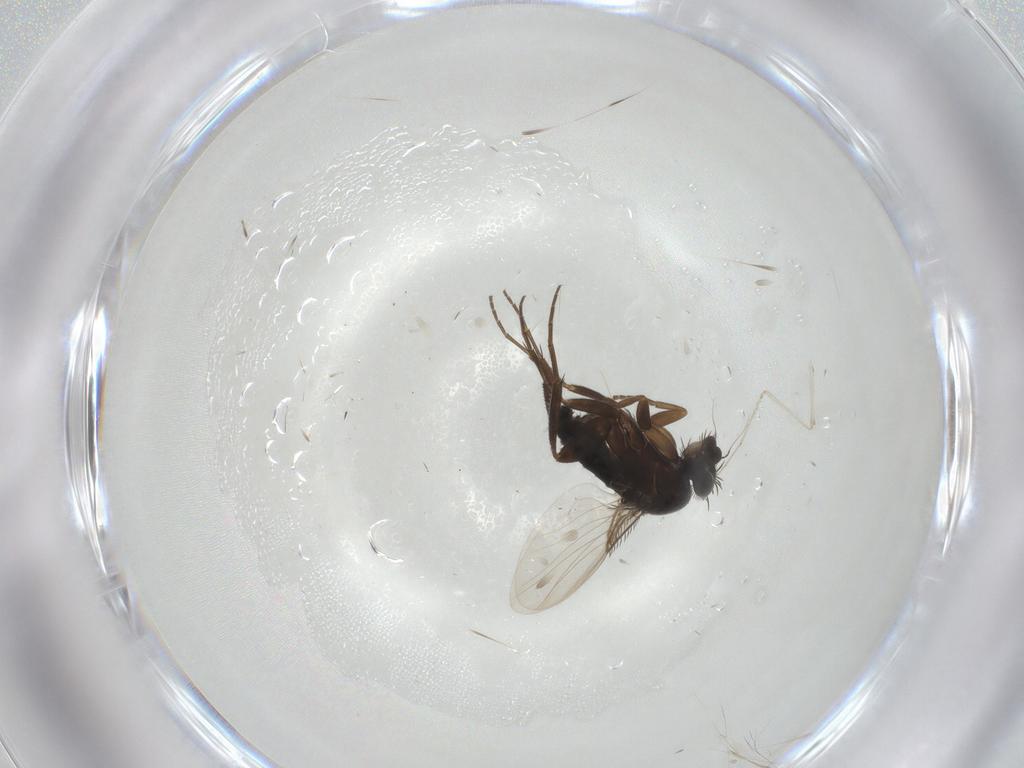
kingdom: Animalia
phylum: Arthropoda
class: Insecta
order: Diptera
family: Phoridae
